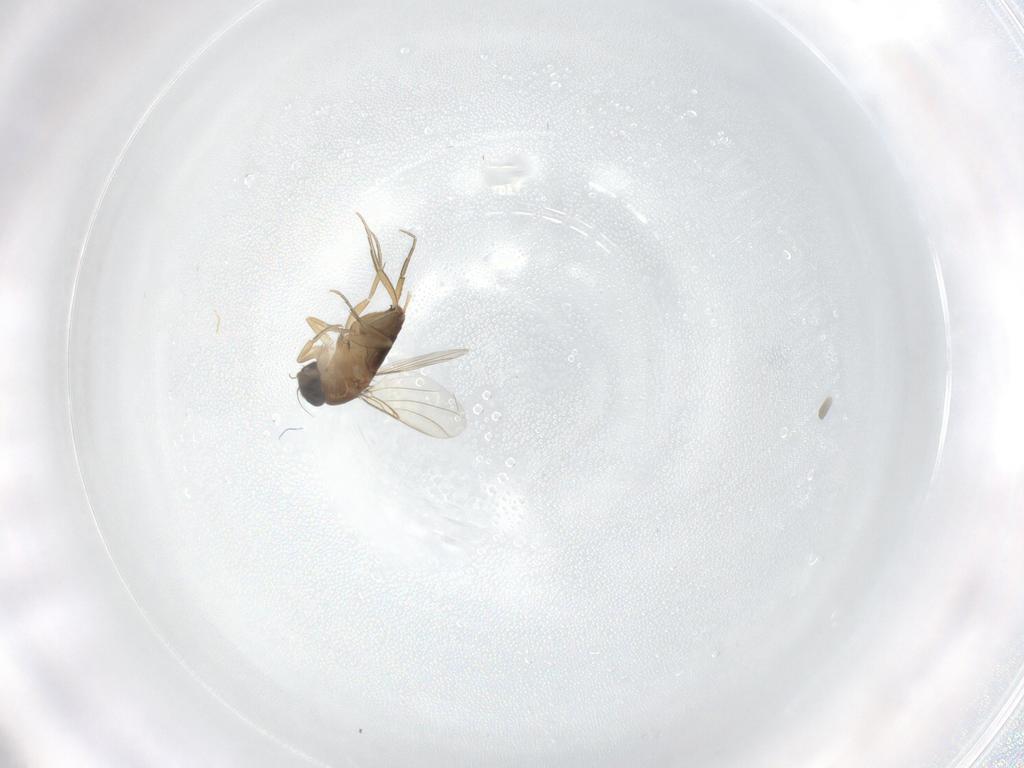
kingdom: Animalia
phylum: Arthropoda
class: Insecta
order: Diptera
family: Phoridae
